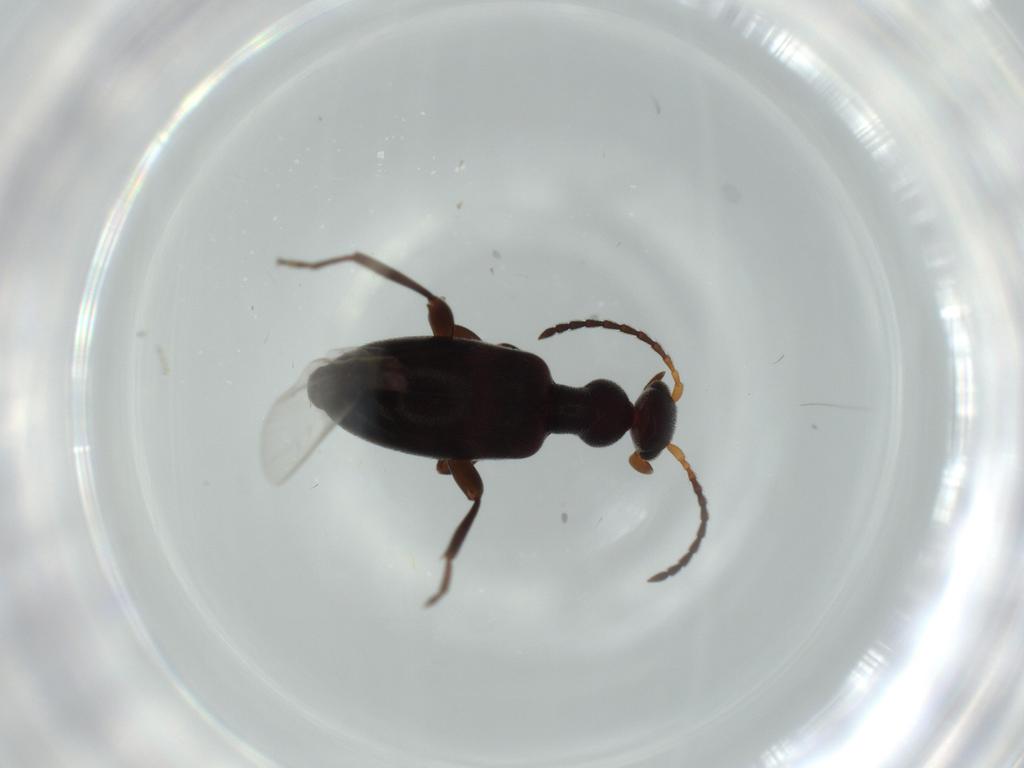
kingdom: Animalia
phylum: Arthropoda
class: Insecta
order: Coleoptera
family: Anthicidae
